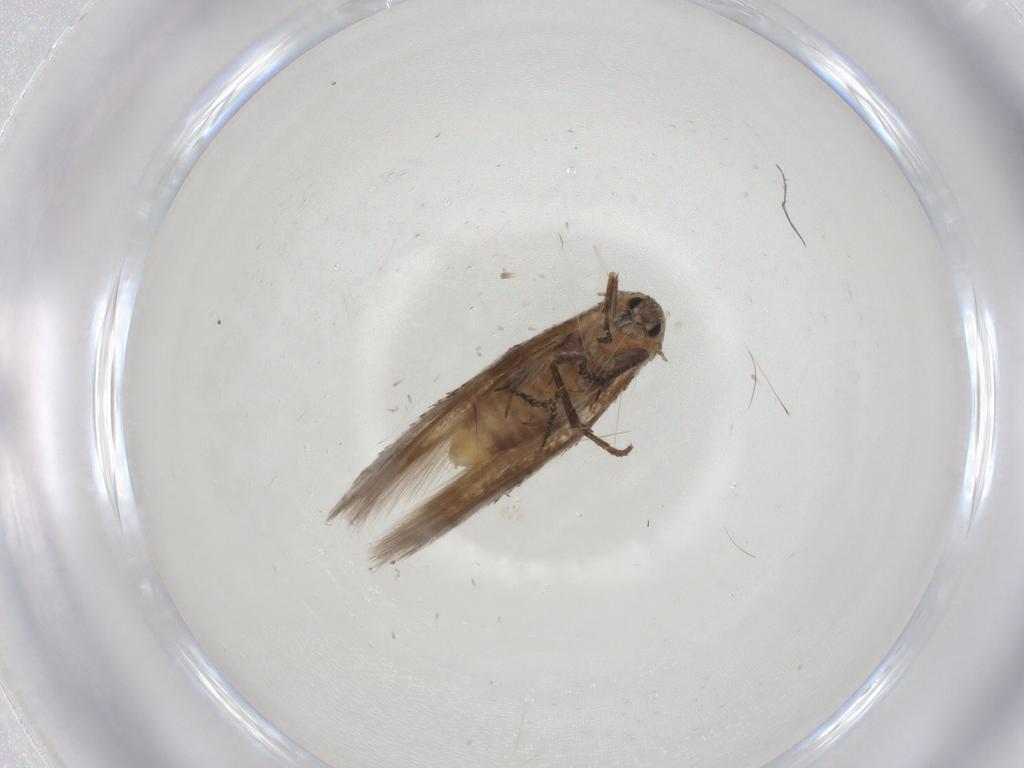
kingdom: Animalia
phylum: Arthropoda
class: Insecta
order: Lepidoptera
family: Bucculatricidae
